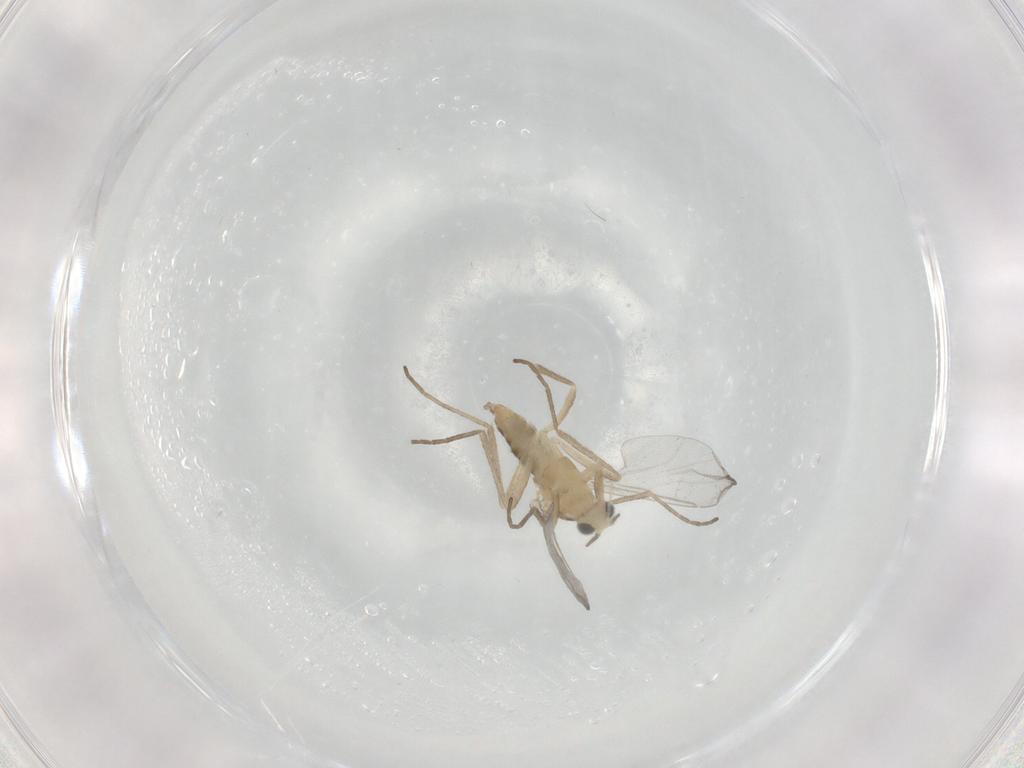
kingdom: Animalia
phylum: Arthropoda
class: Insecta
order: Diptera
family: Cecidomyiidae
